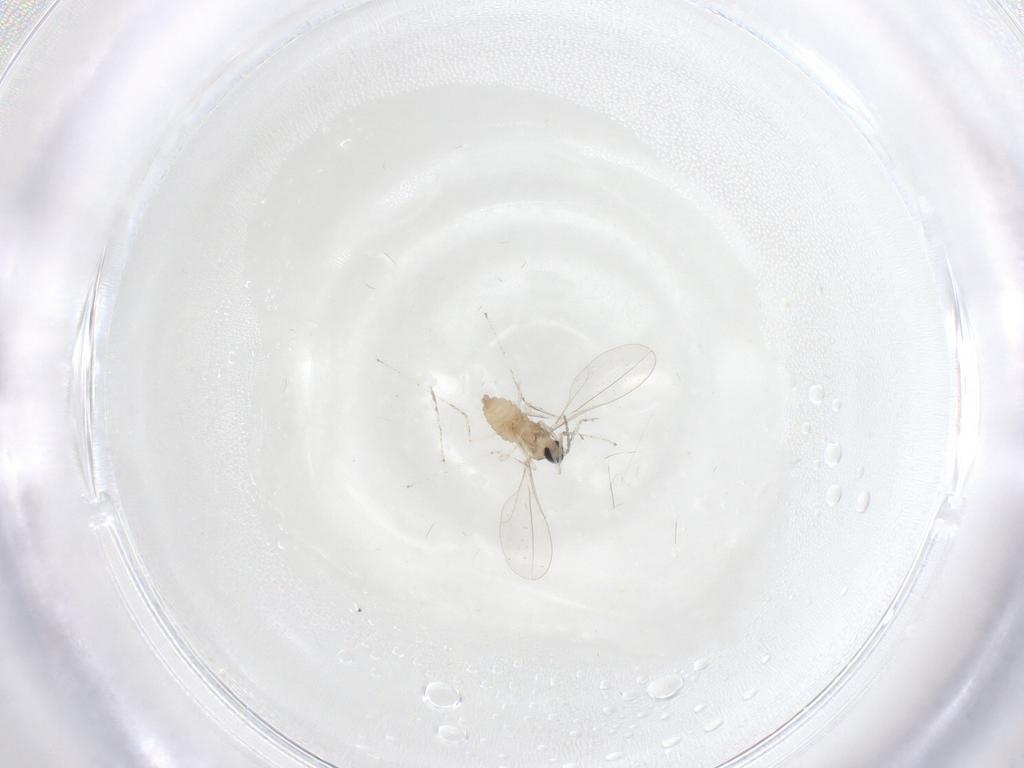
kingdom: Animalia
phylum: Arthropoda
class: Insecta
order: Diptera
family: Cecidomyiidae
